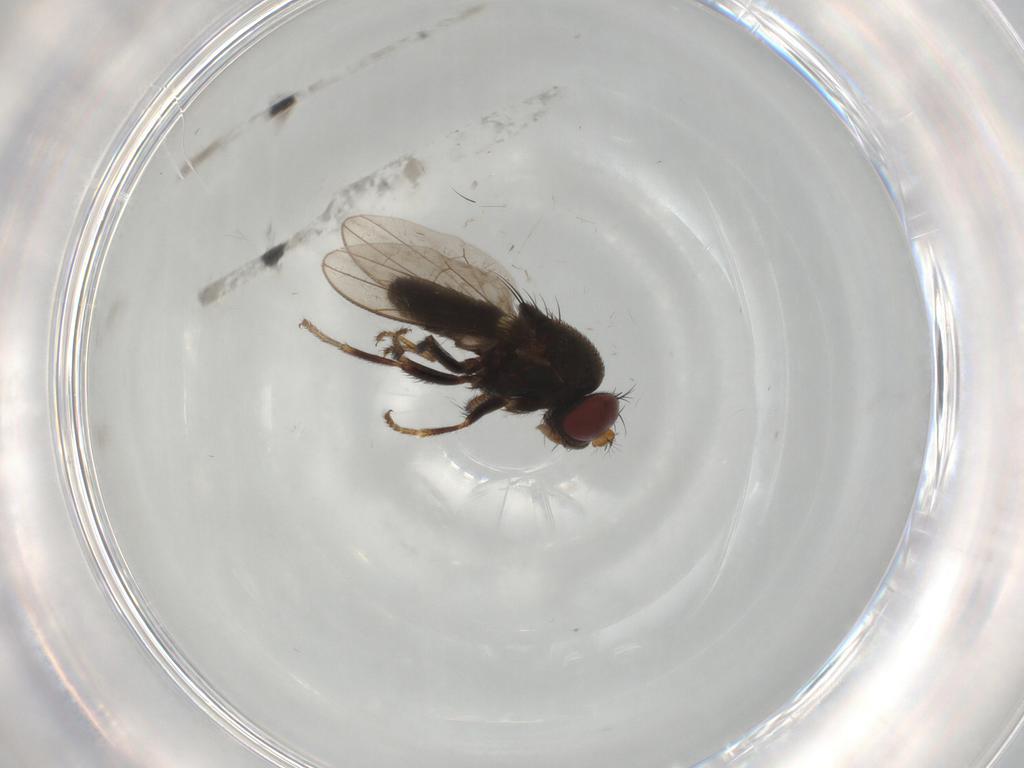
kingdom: Animalia
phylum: Arthropoda
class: Insecta
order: Diptera
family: Ephydridae
